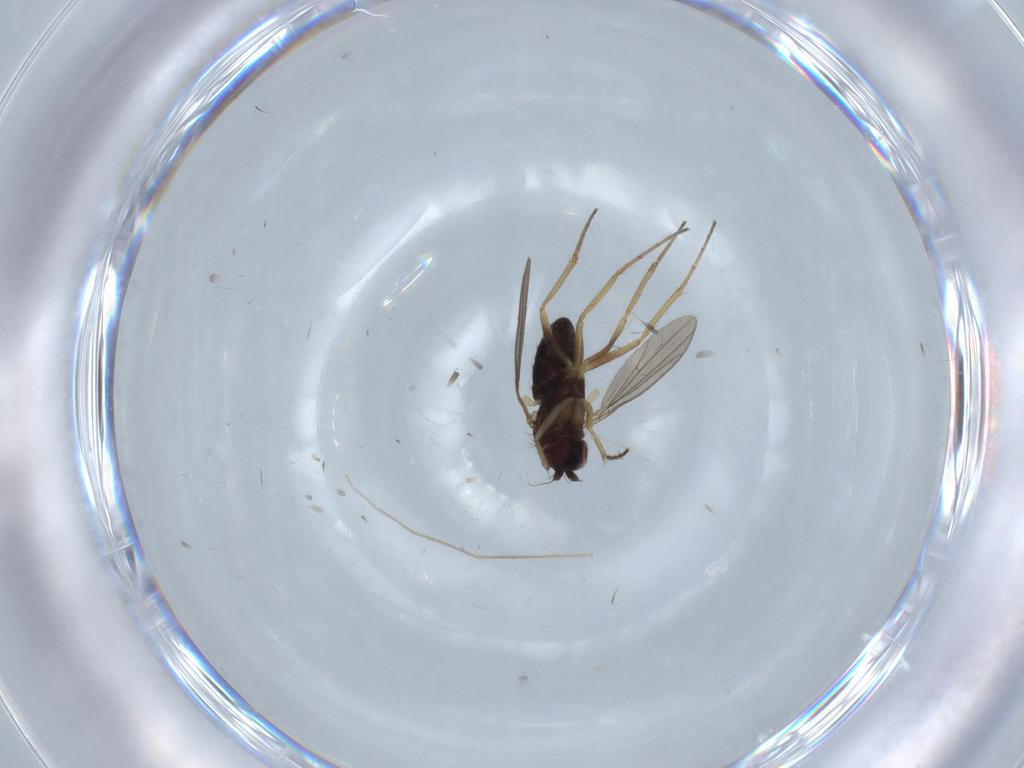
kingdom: Animalia
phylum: Arthropoda
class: Insecta
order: Diptera
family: Dolichopodidae
